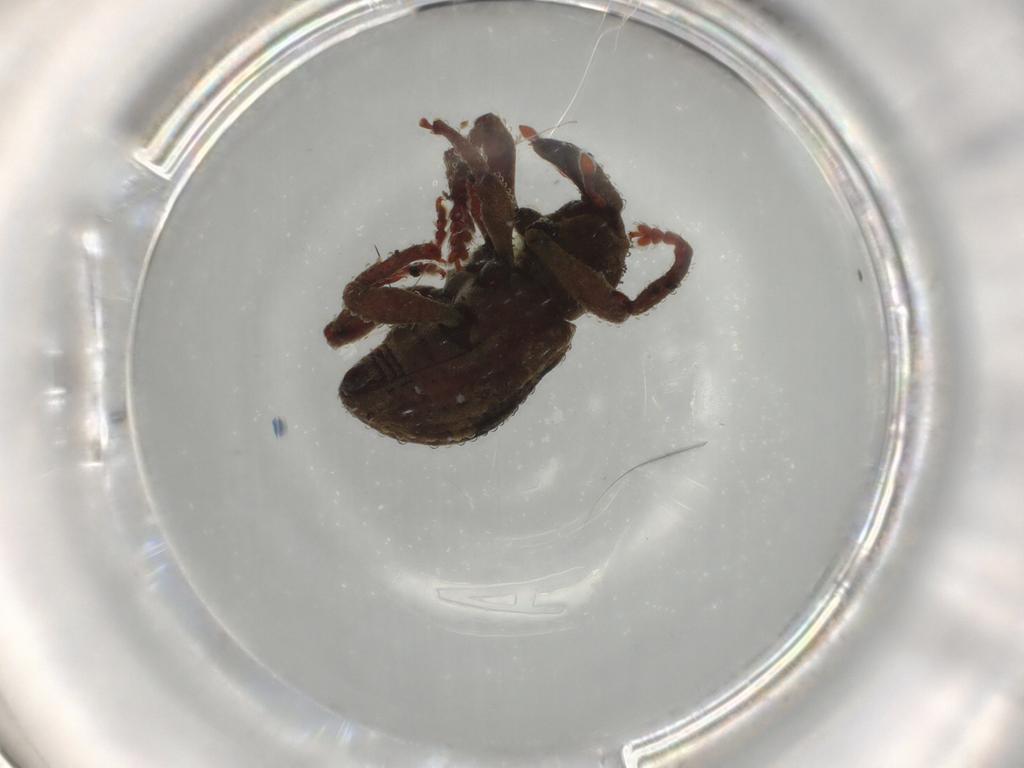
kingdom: Animalia
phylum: Arthropoda
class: Insecta
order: Coleoptera
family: Curculionidae
